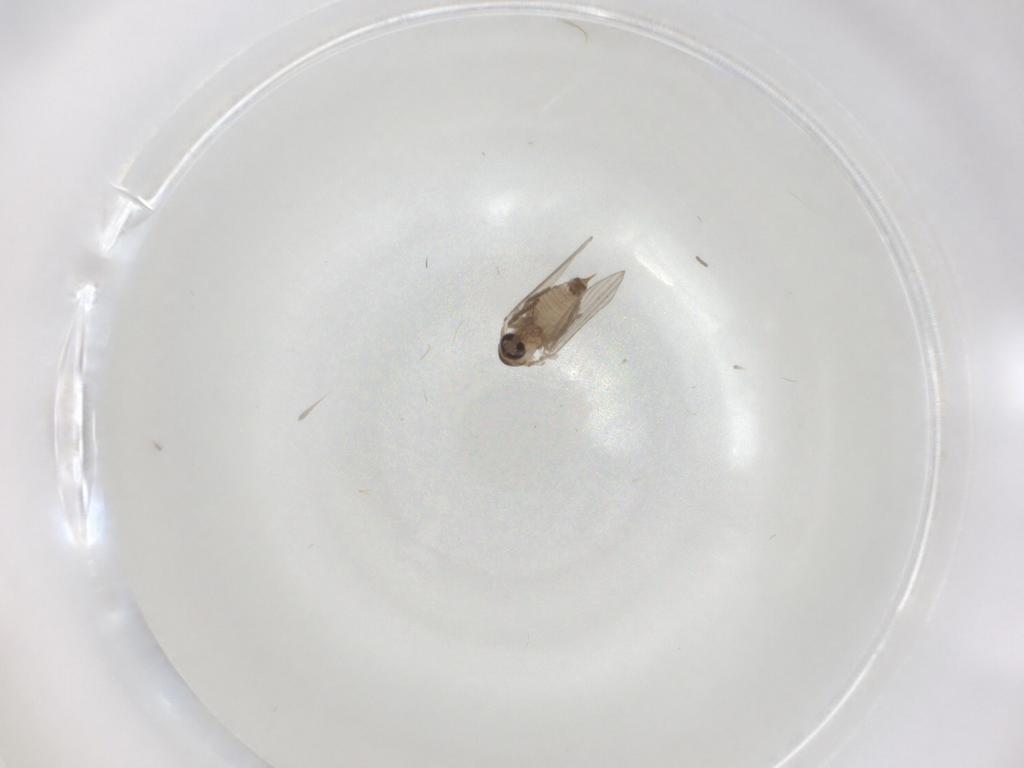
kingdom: Animalia
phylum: Arthropoda
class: Insecta
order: Diptera
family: Psychodidae
